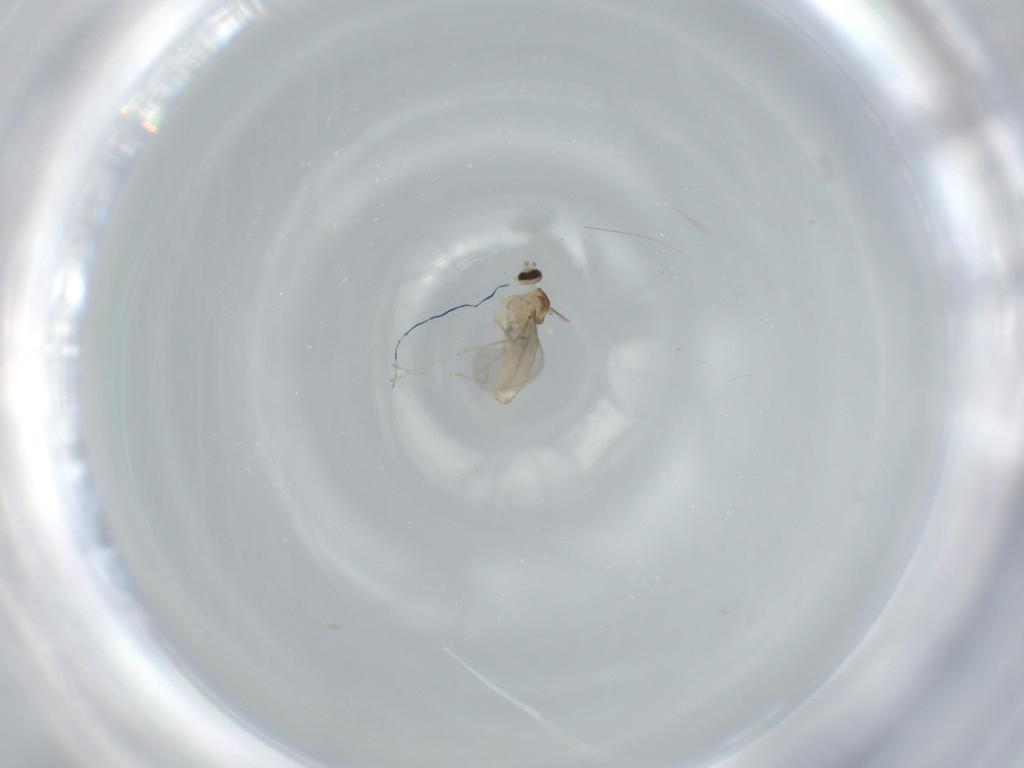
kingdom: Animalia
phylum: Arthropoda
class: Insecta
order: Diptera
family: Cecidomyiidae
